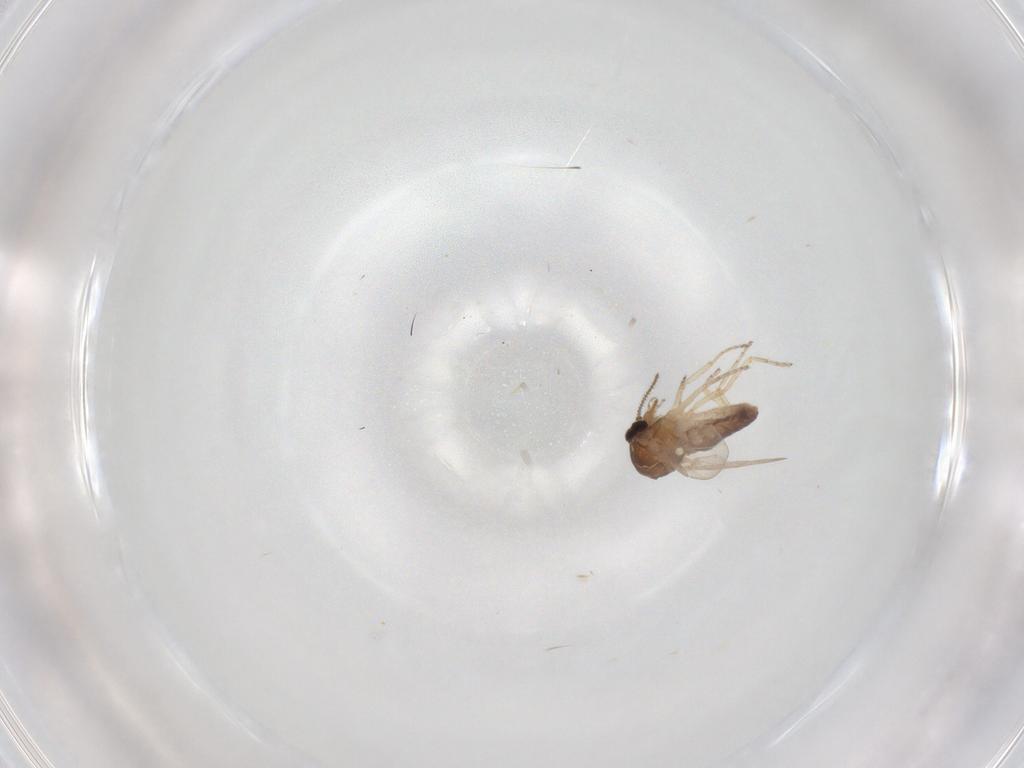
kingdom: Animalia
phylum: Arthropoda
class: Insecta
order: Diptera
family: Ceratopogonidae
